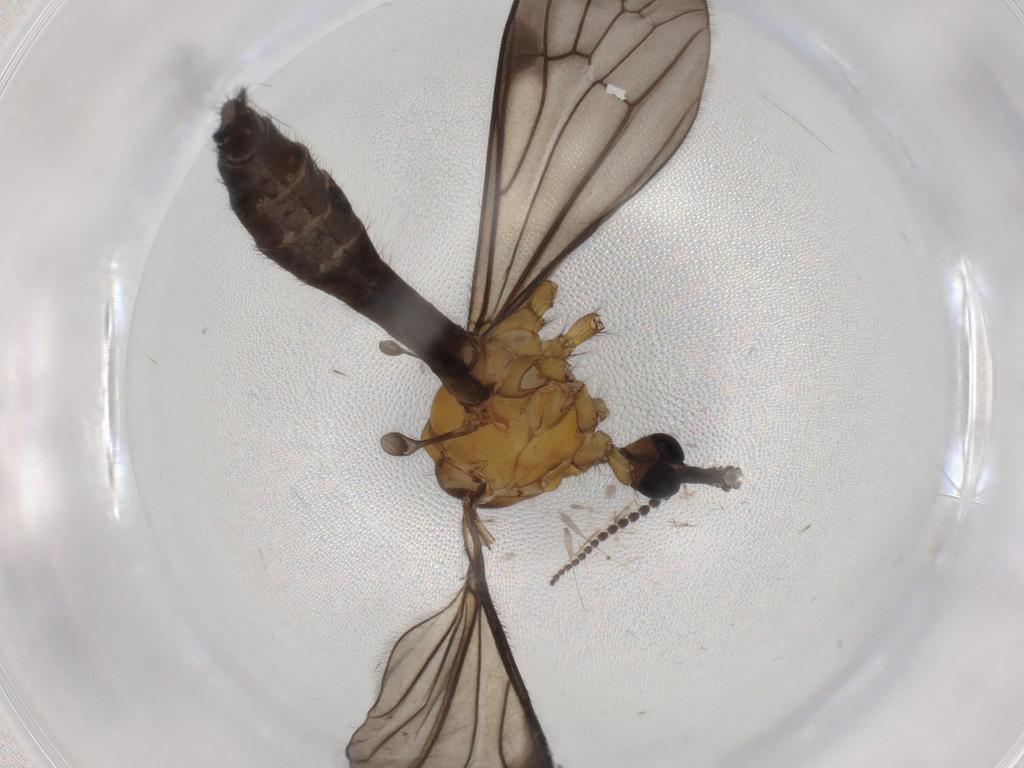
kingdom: Animalia
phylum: Arthropoda
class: Insecta
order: Diptera
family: Limoniidae
